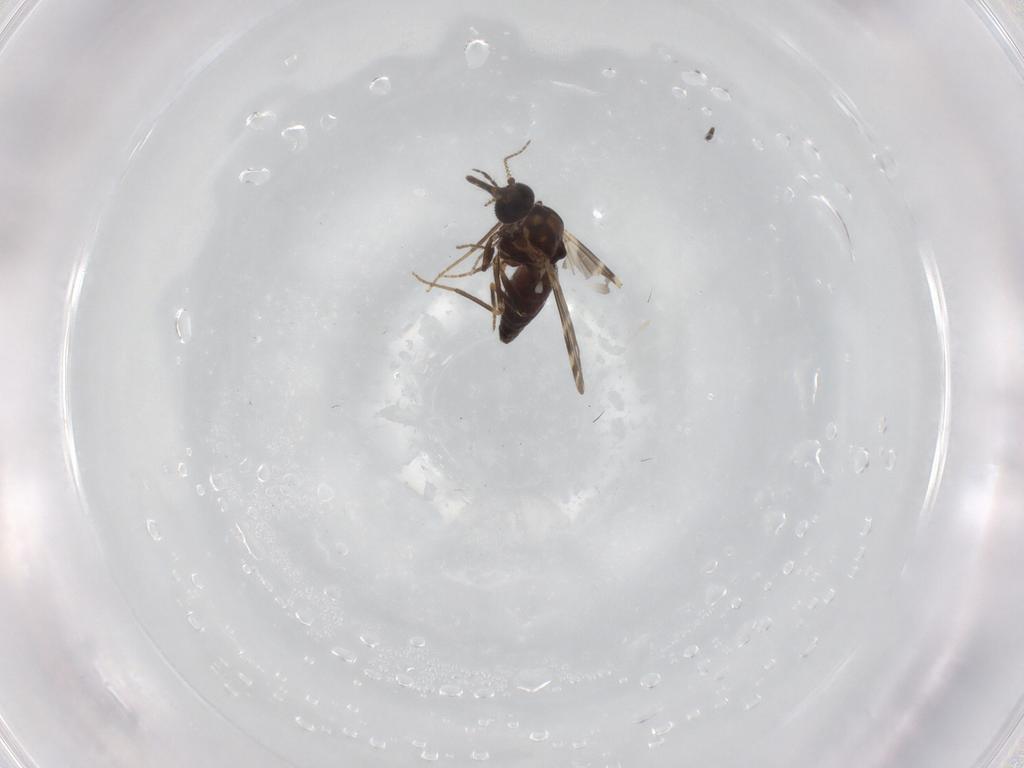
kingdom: Animalia
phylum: Arthropoda
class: Insecta
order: Diptera
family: Ceratopogonidae
